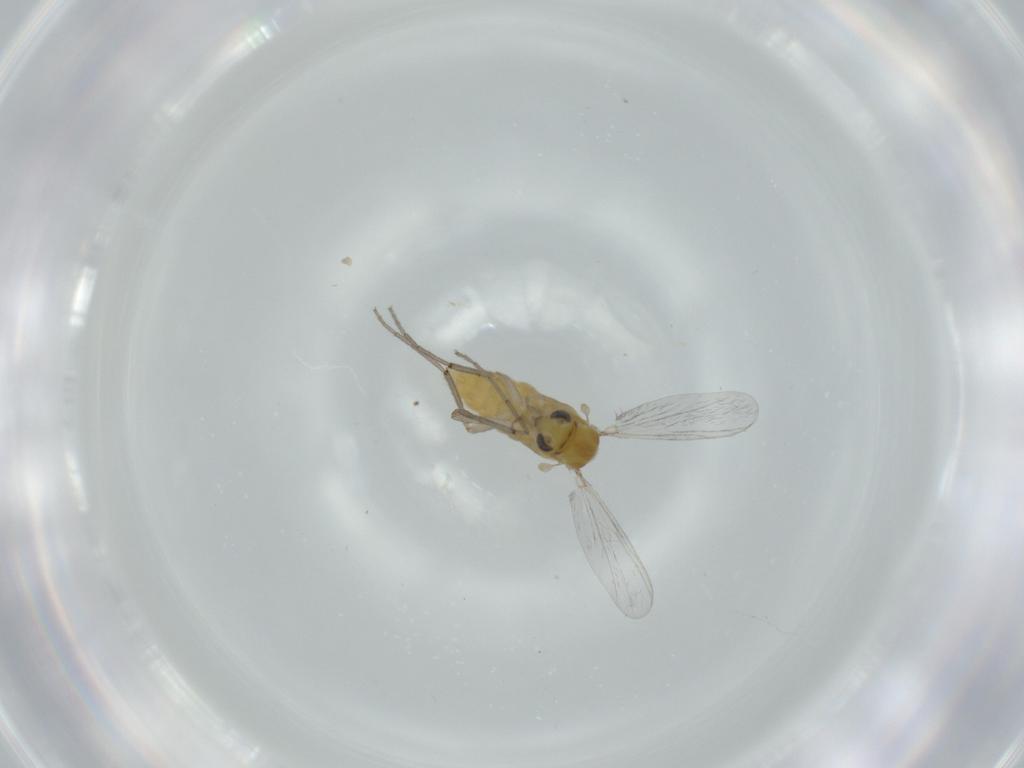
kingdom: Animalia
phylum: Arthropoda
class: Insecta
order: Diptera
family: Chironomidae
